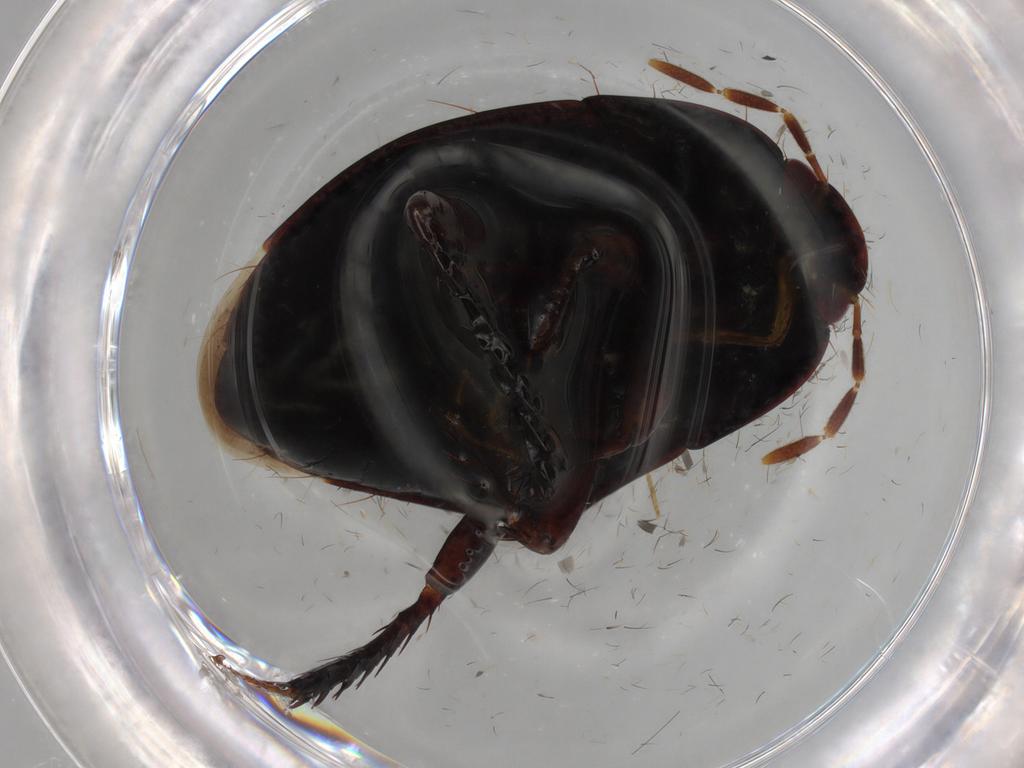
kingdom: Animalia
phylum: Arthropoda
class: Insecta
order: Hemiptera
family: Cydnidae
